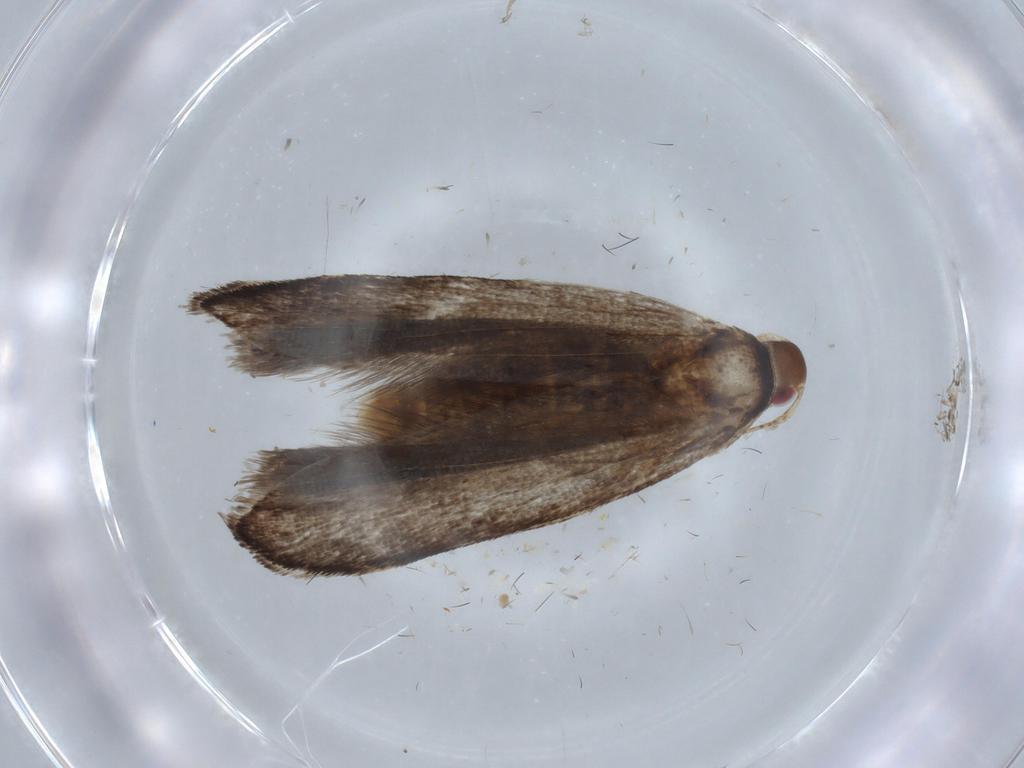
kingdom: Animalia
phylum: Arthropoda
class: Insecta
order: Lepidoptera
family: Gelechiidae
